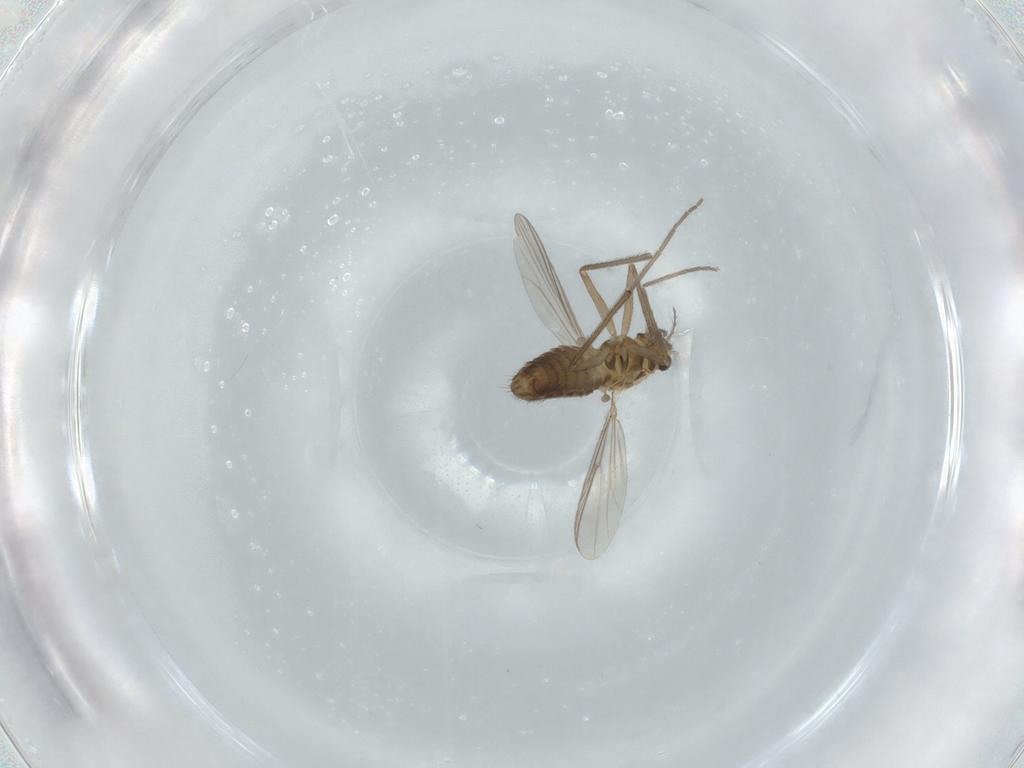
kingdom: Animalia
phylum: Arthropoda
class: Insecta
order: Diptera
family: Chironomidae
